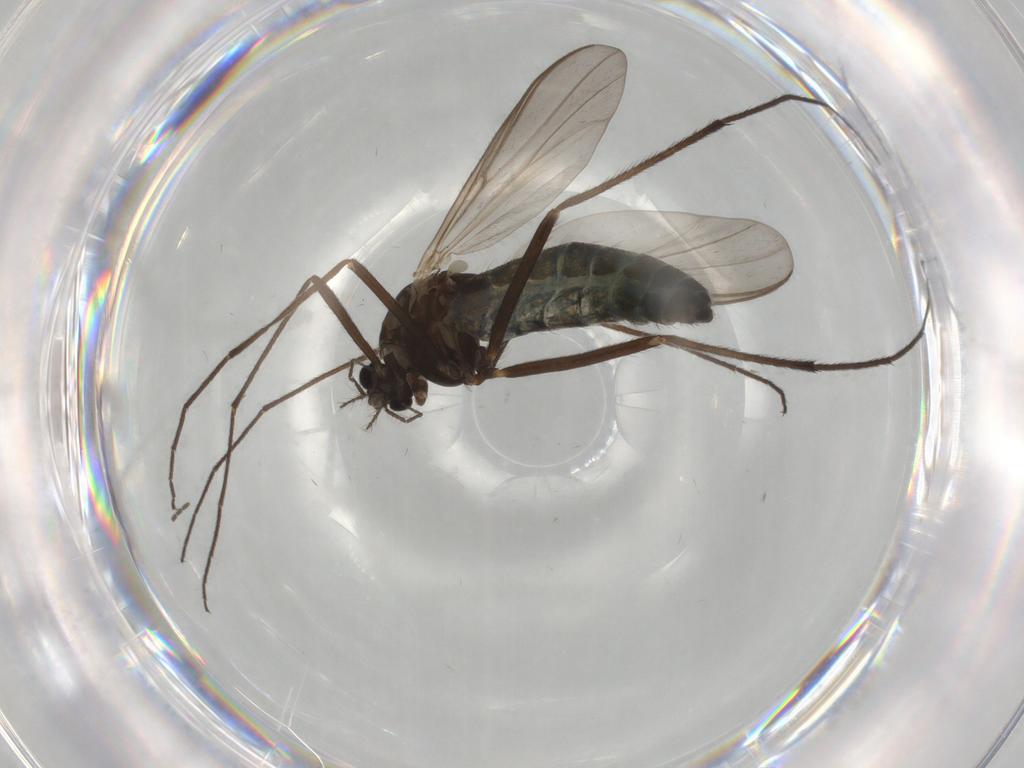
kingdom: Animalia
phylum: Arthropoda
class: Insecta
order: Diptera
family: Chironomidae
